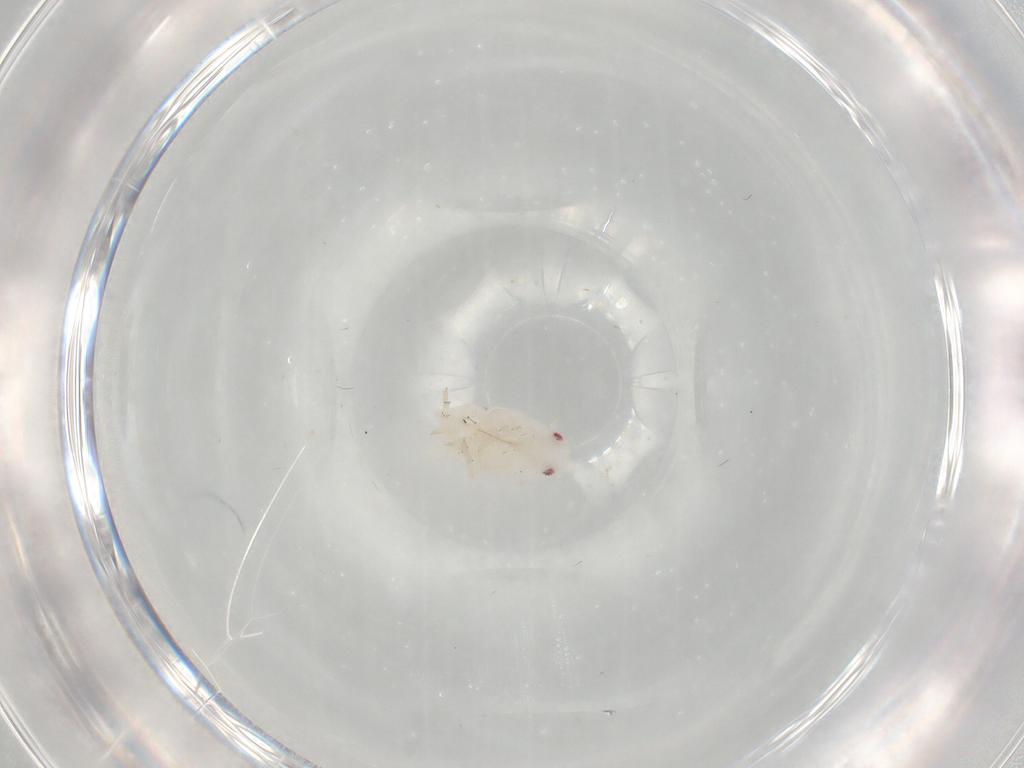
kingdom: Animalia
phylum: Arthropoda
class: Insecta
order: Hemiptera
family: Flatidae
